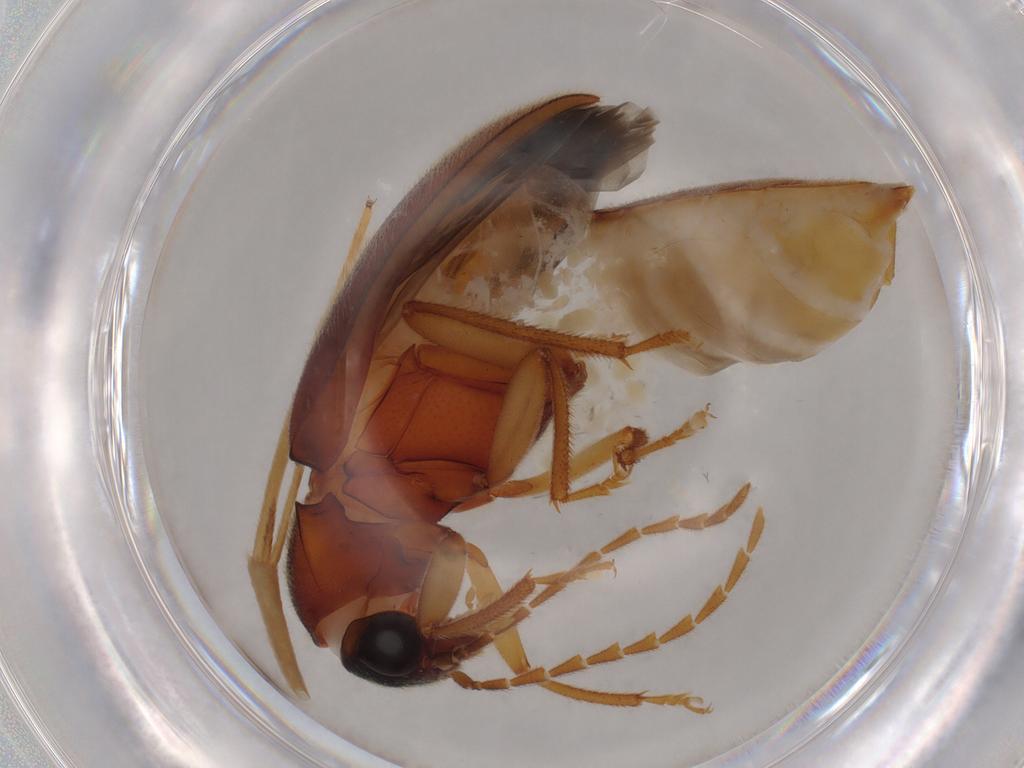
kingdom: Animalia
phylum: Arthropoda
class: Insecta
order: Coleoptera
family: Ptilodactylidae
